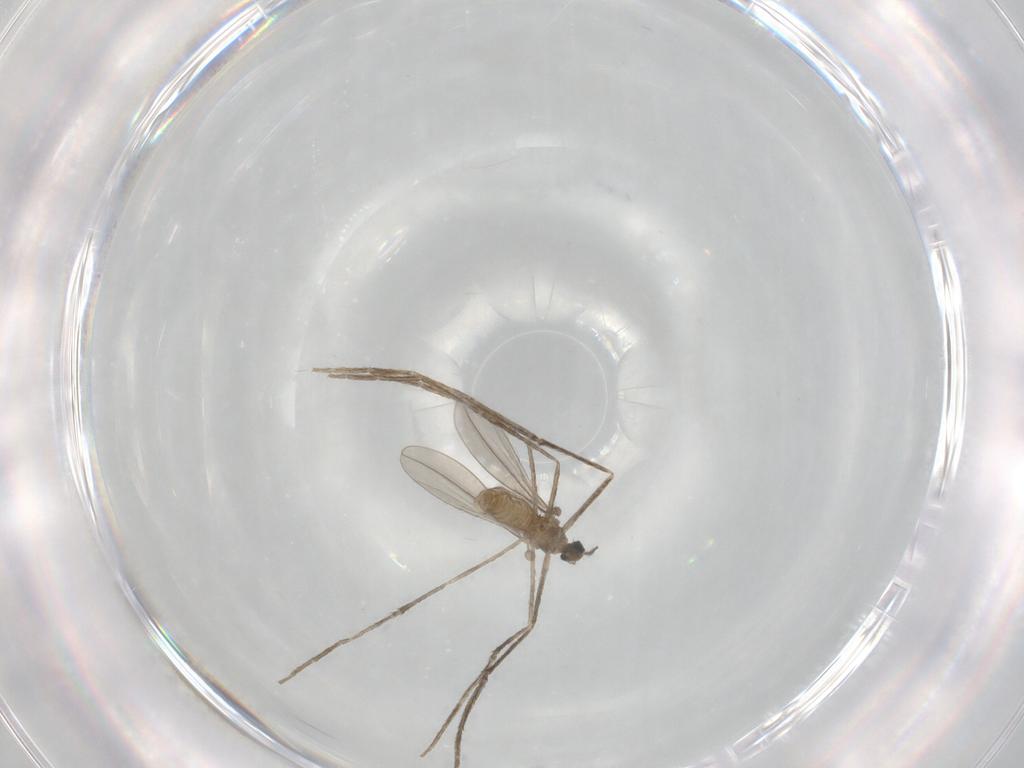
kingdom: Animalia
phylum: Arthropoda
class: Insecta
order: Diptera
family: Cecidomyiidae
